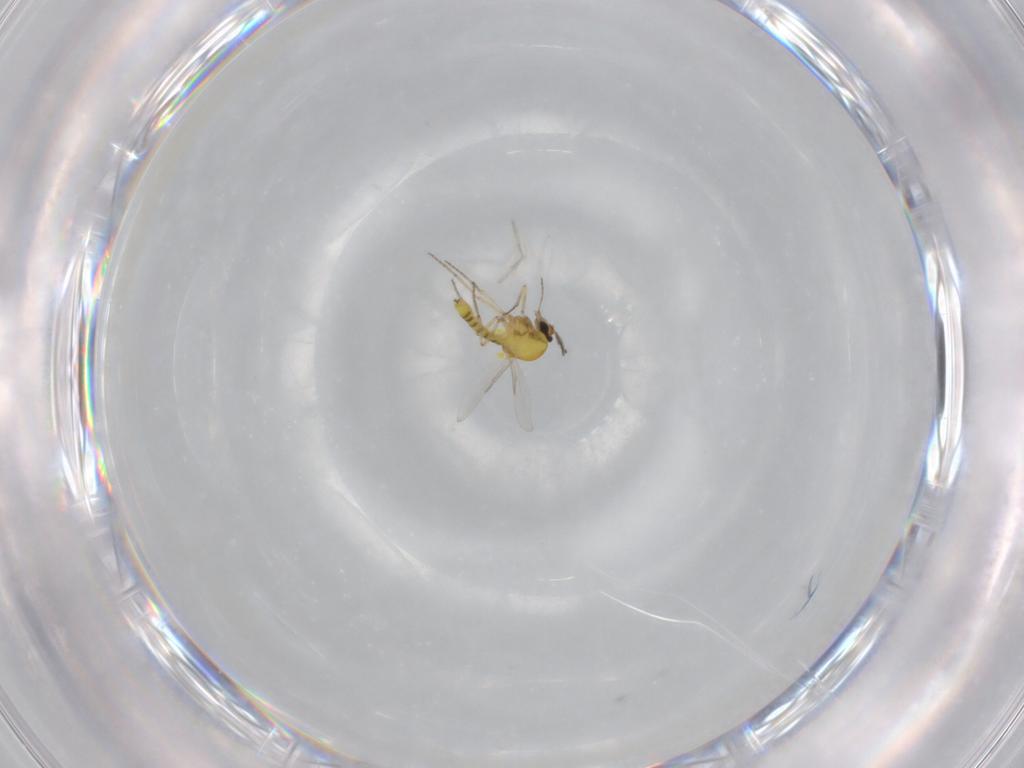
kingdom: Animalia
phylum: Arthropoda
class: Insecta
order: Diptera
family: Ceratopogonidae
